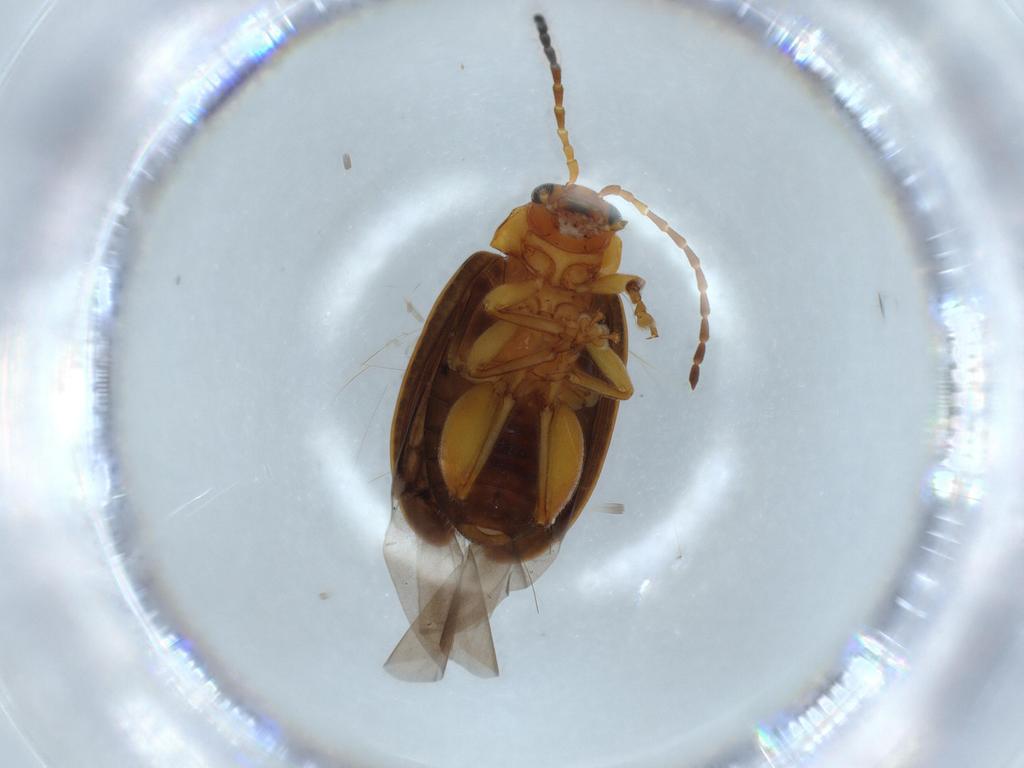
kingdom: Animalia
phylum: Arthropoda
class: Insecta
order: Coleoptera
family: Chrysomelidae
